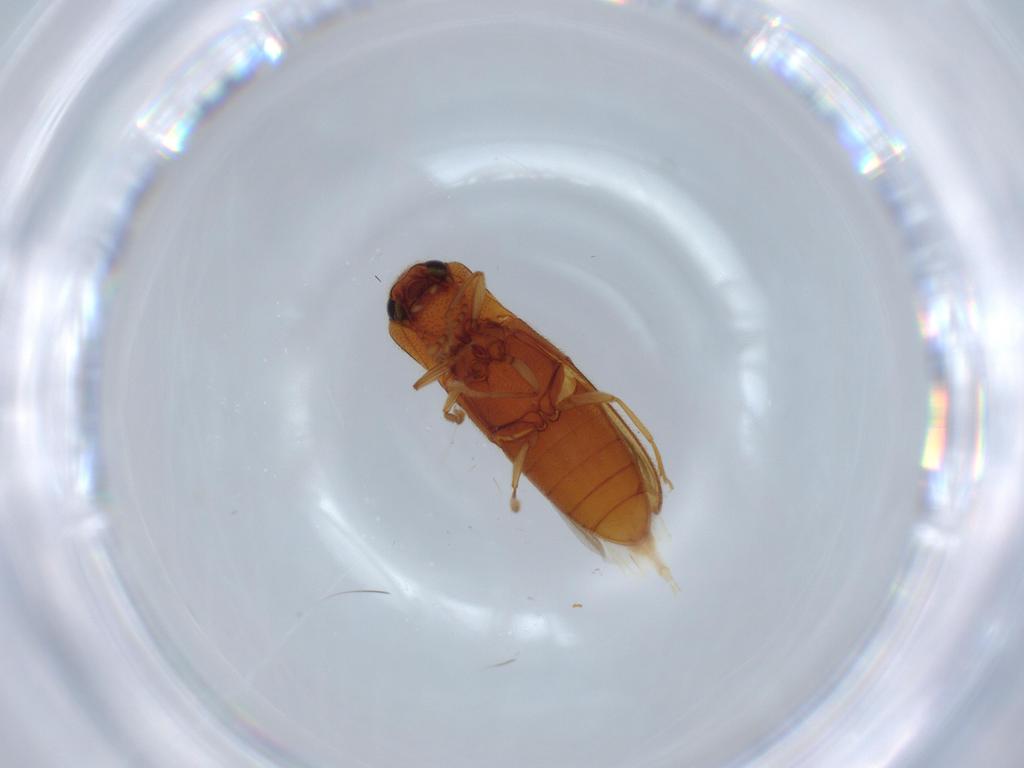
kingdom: Animalia
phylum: Arthropoda
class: Insecta
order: Coleoptera
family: Elateridae
